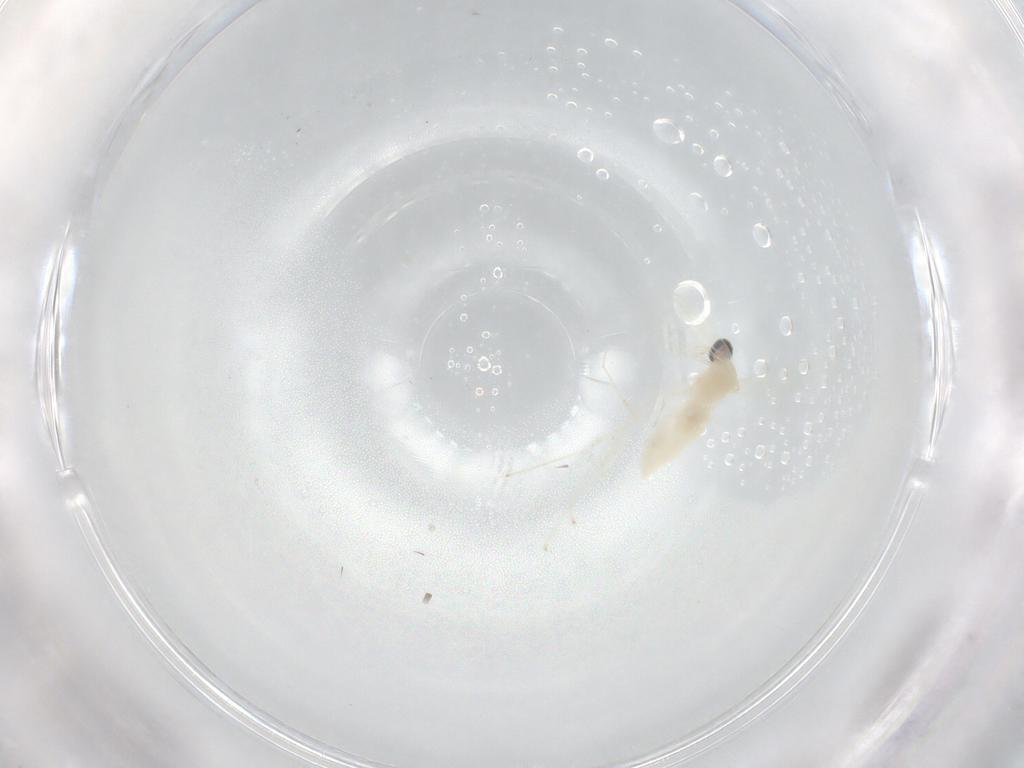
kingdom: Animalia
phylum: Arthropoda
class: Insecta
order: Diptera
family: Cecidomyiidae
